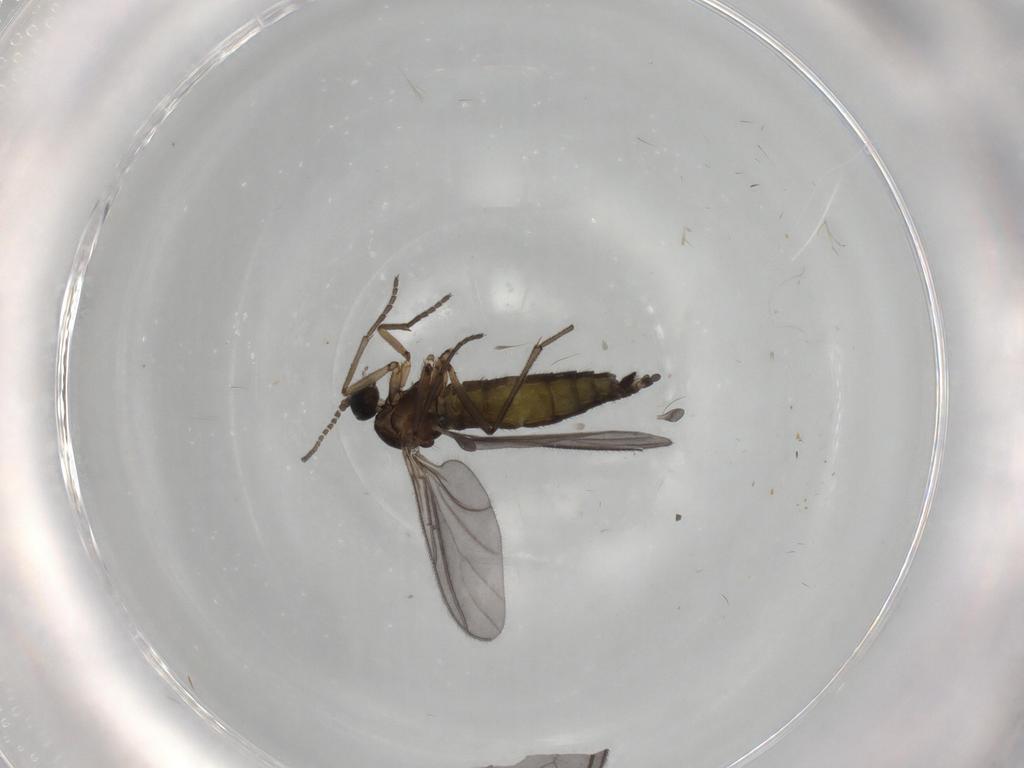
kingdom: Animalia
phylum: Arthropoda
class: Insecta
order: Diptera
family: Sciaridae
